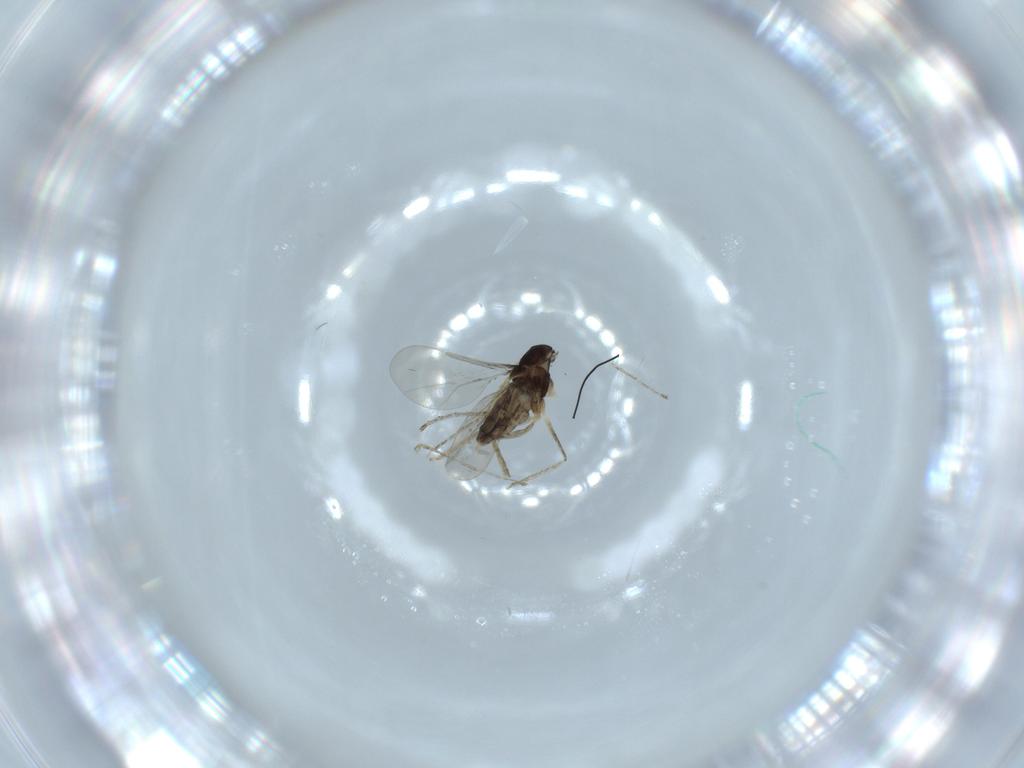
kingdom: Animalia
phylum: Arthropoda
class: Insecta
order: Diptera
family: Cecidomyiidae
